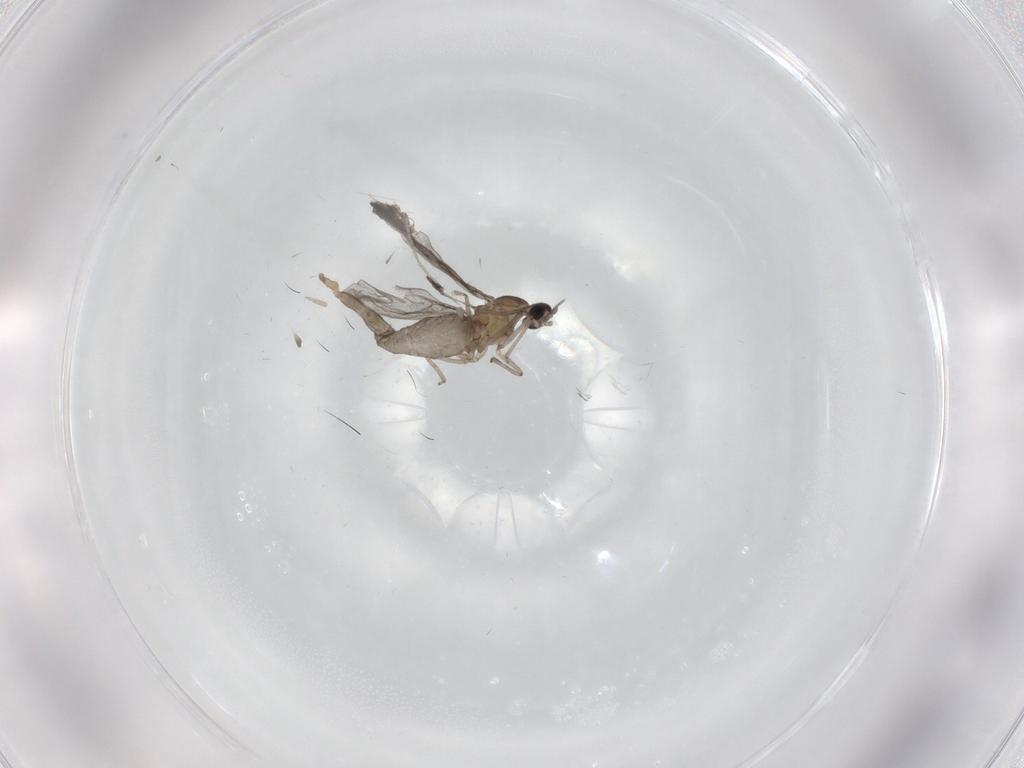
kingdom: Animalia
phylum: Arthropoda
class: Insecta
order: Diptera
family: Cecidomyiidae
